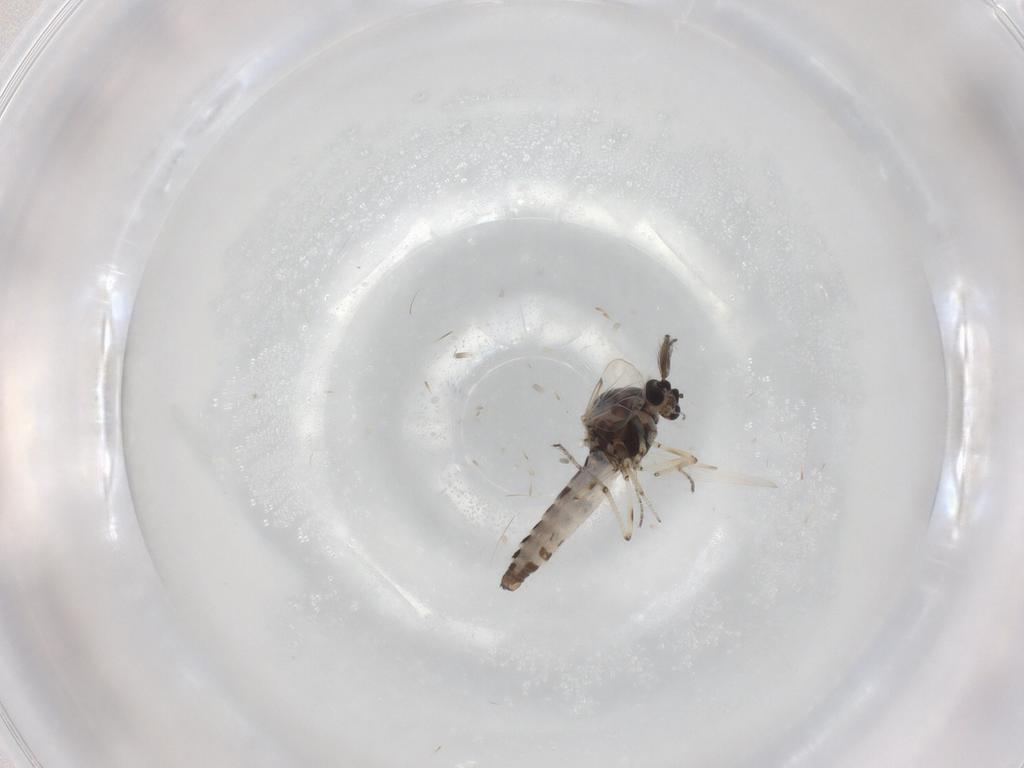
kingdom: Animalia
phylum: Arthropoda
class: Insecta
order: Diptera
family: Ceratopogonidae
